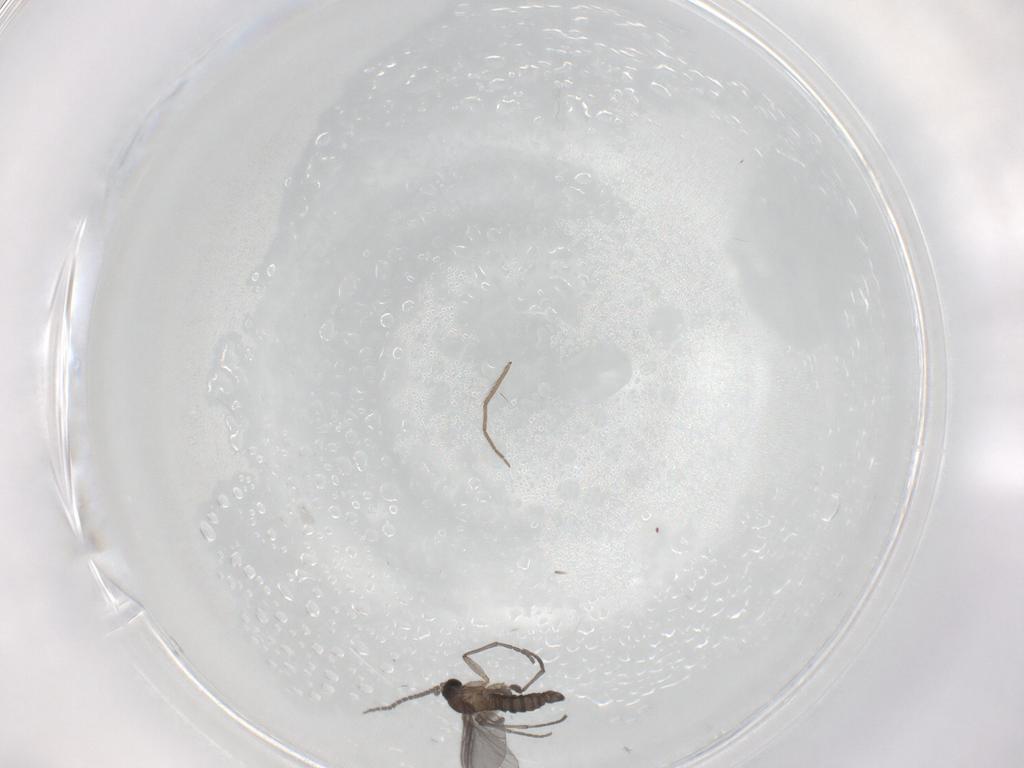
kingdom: Animalia
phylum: Arthropoda
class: Insecta
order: Diptera
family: Sciaridae
